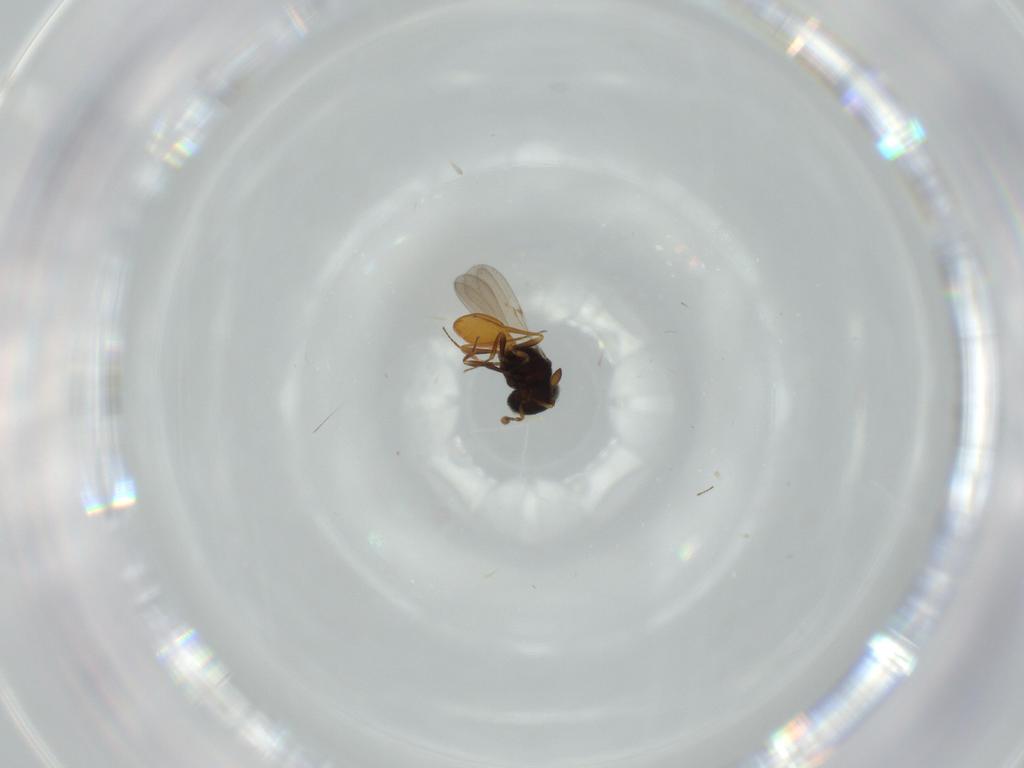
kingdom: Animalia
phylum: Arthropoda
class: Insecta
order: Hymenoptera
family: Scelionidae
